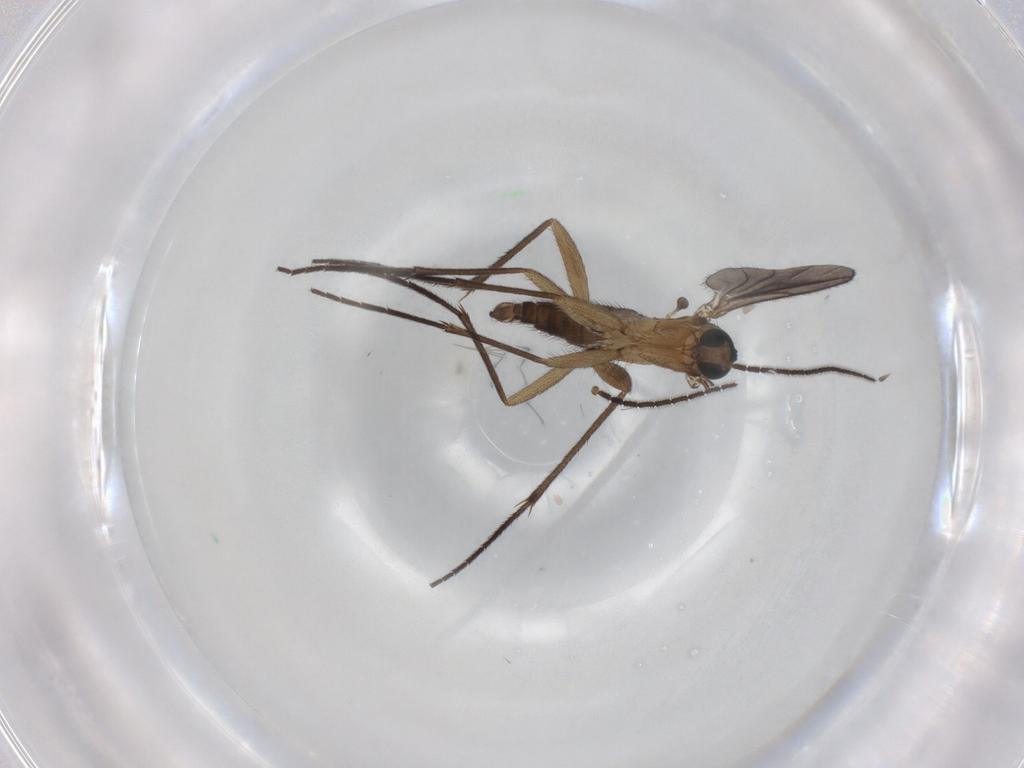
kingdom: Animalia
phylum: Arthropoda
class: Insecta
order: Diptera
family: Sciaridae
